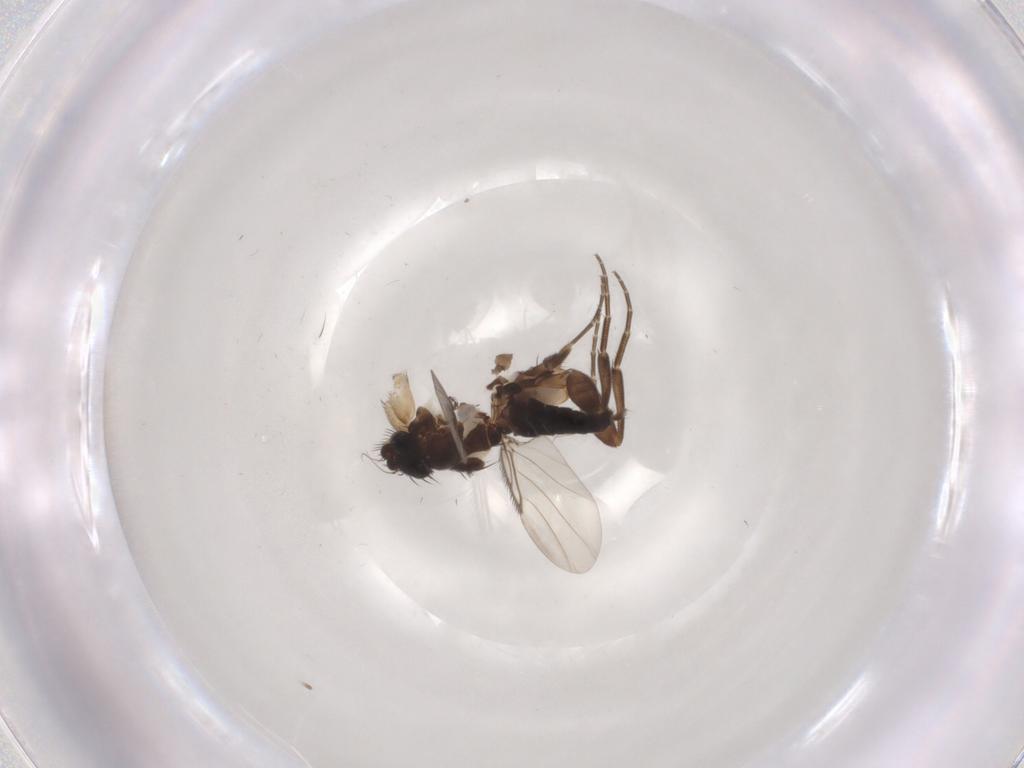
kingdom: Animalia
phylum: Arthropoda
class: Insecta
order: Diptera
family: Phoridae
